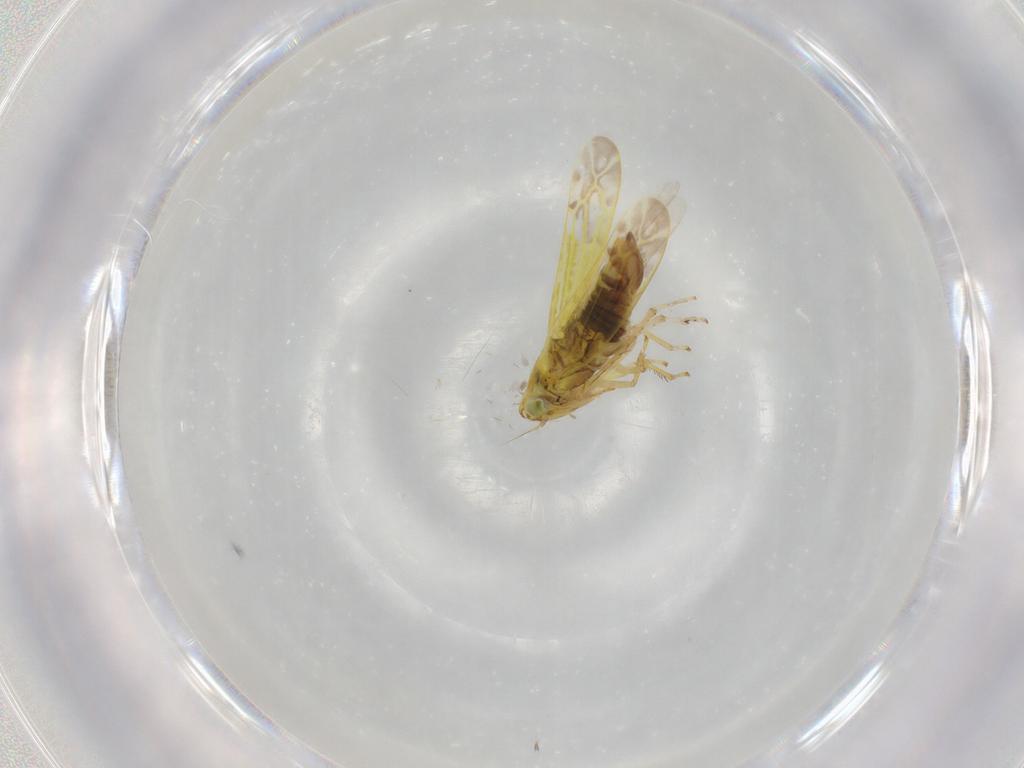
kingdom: Animalia
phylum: Arthropoda
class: Insecta
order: Hemiptera
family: Cicadellidae
